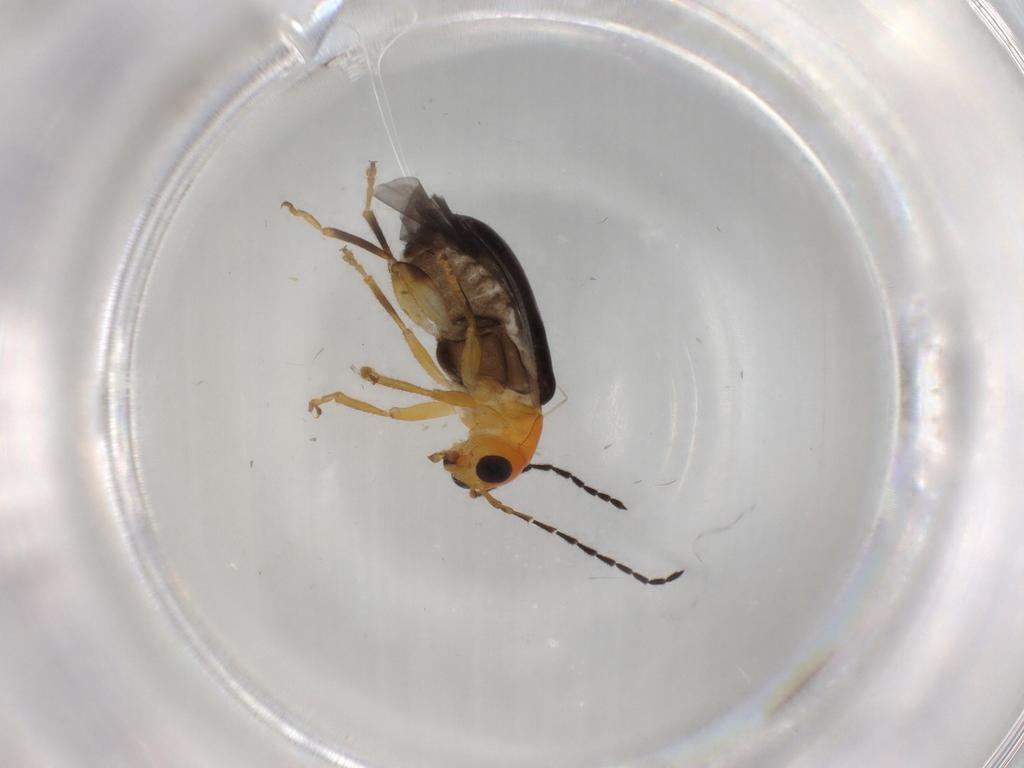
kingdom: Animalia
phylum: Arthropoda
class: Insecta
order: Coleoptera
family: Chrysomelidae
